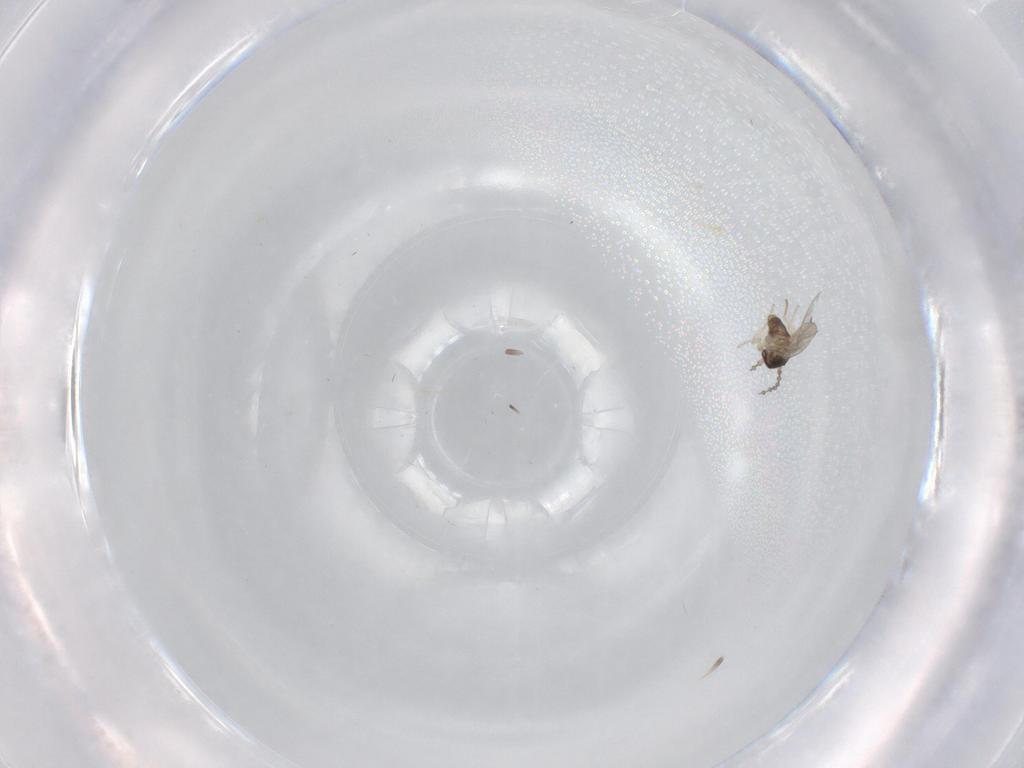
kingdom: Animalia
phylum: Arthropoda
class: Insecta
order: Diptera
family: Cecidomyiidae
